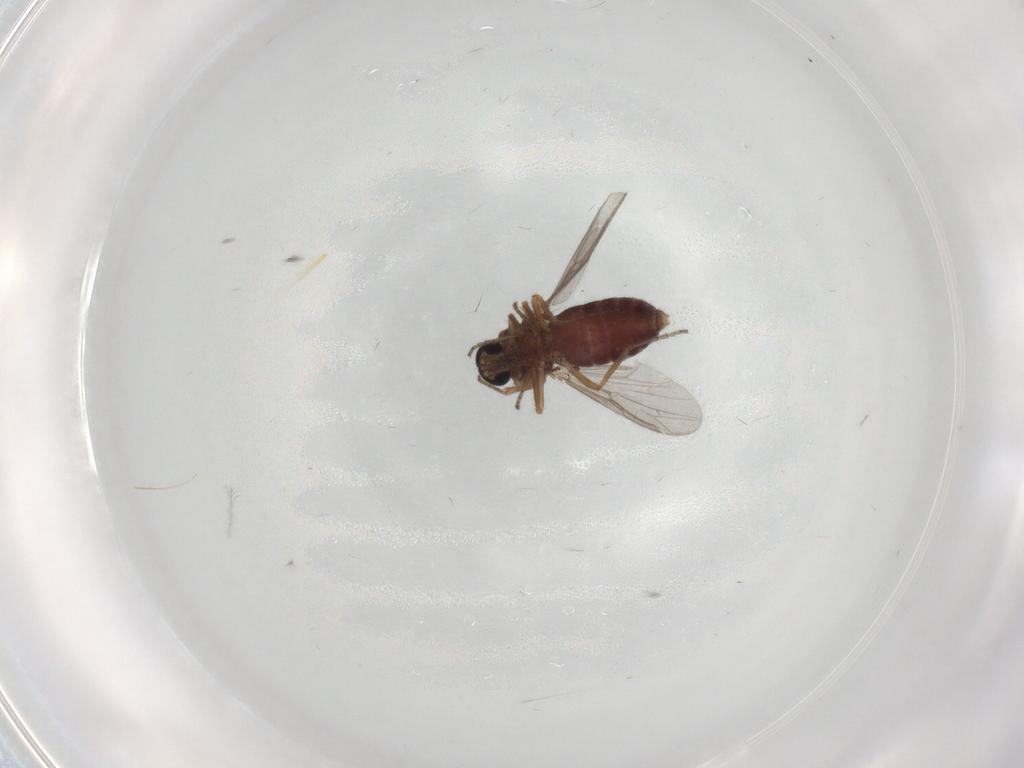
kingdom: Animalia
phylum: Arthropoda
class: Insecta
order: Diptera
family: Ceratopogonidae
